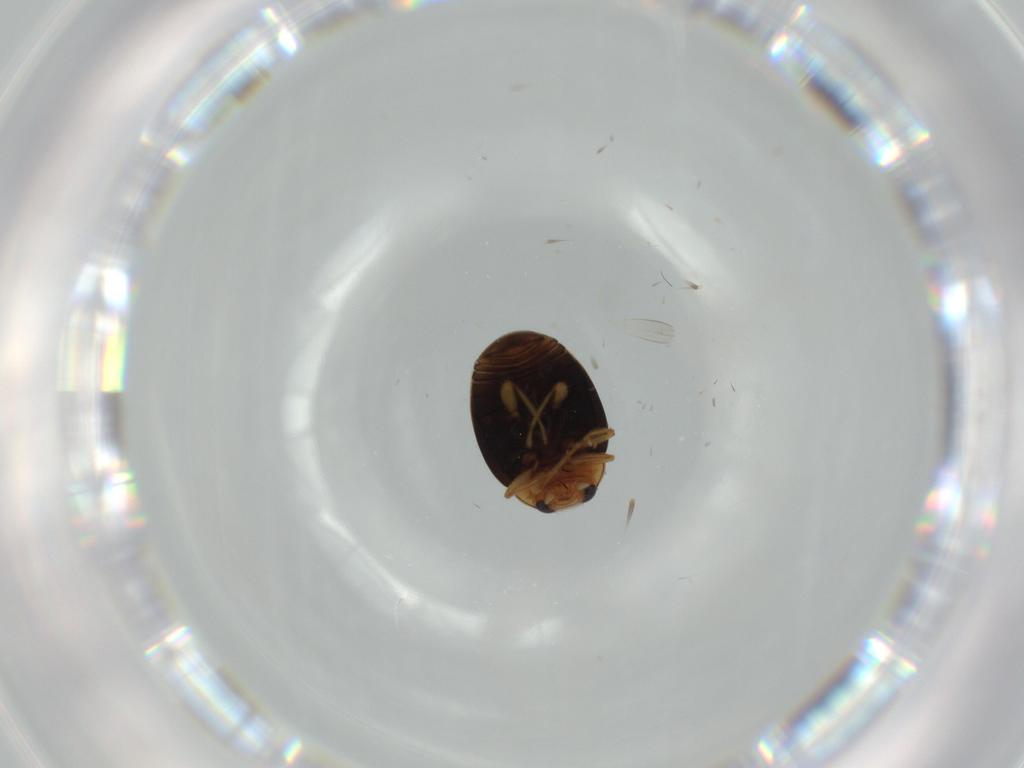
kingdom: Animalia
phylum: Arthropoda
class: Insecta
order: Coleoptera
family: Coccinellidae
